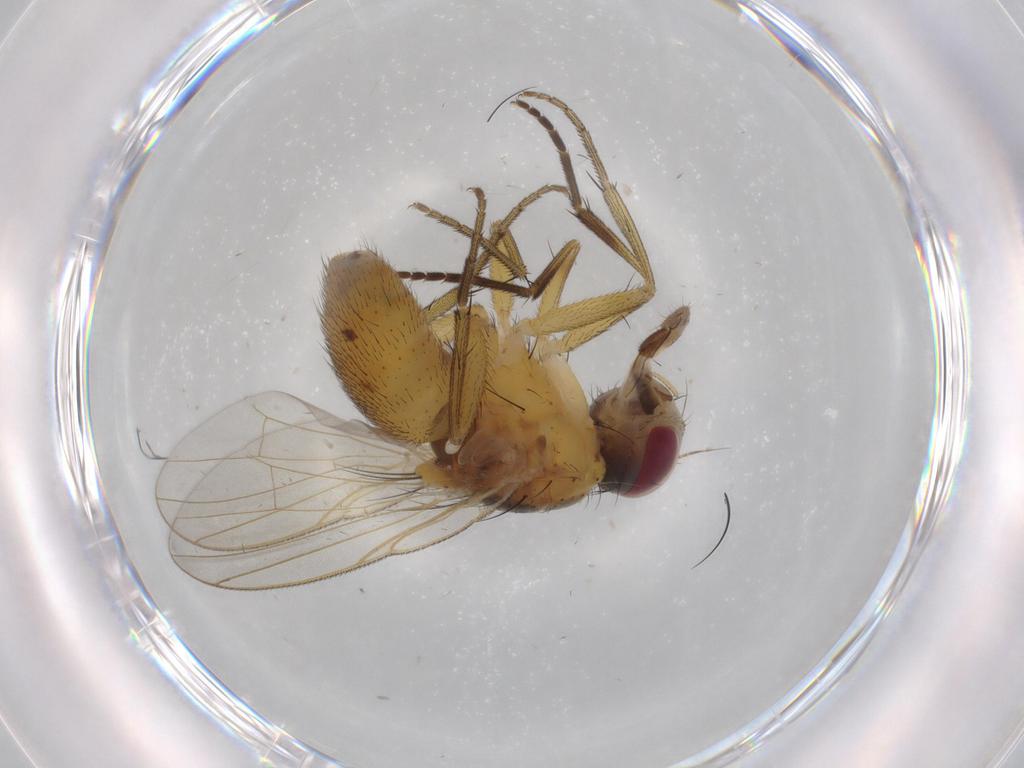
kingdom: Animalia
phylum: Arthropoda
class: Insecta
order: Diptera
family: Muscidae
